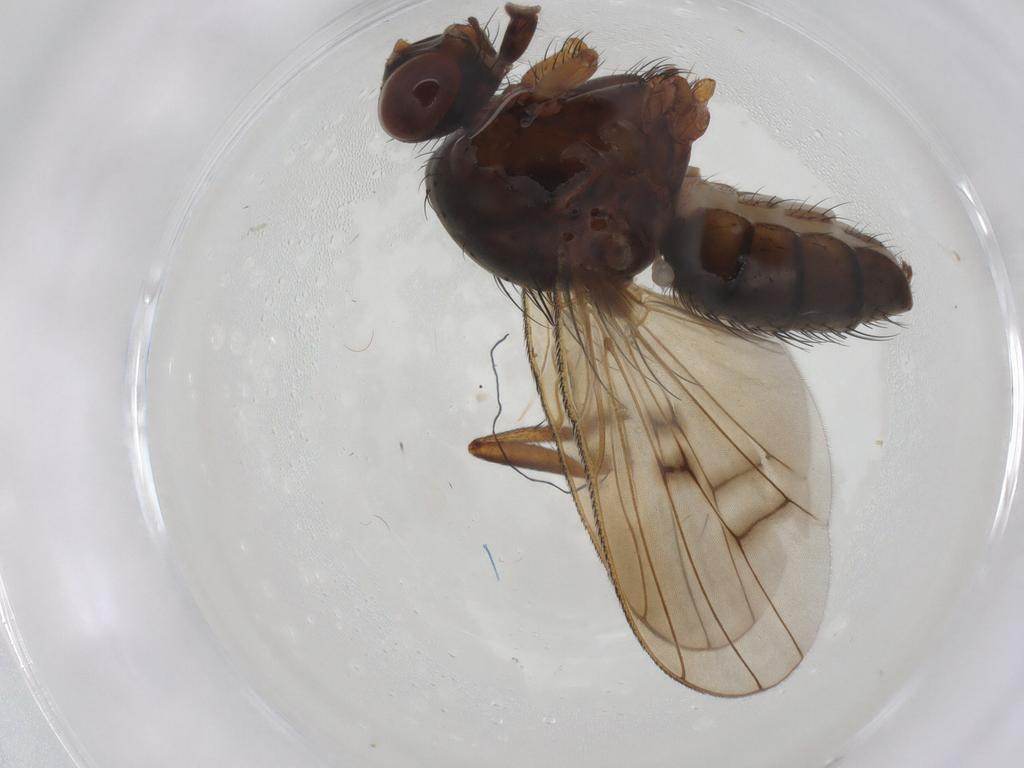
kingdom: Animalia
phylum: Arthropoda
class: Insecta
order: Diptera
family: Anthomyiidae
